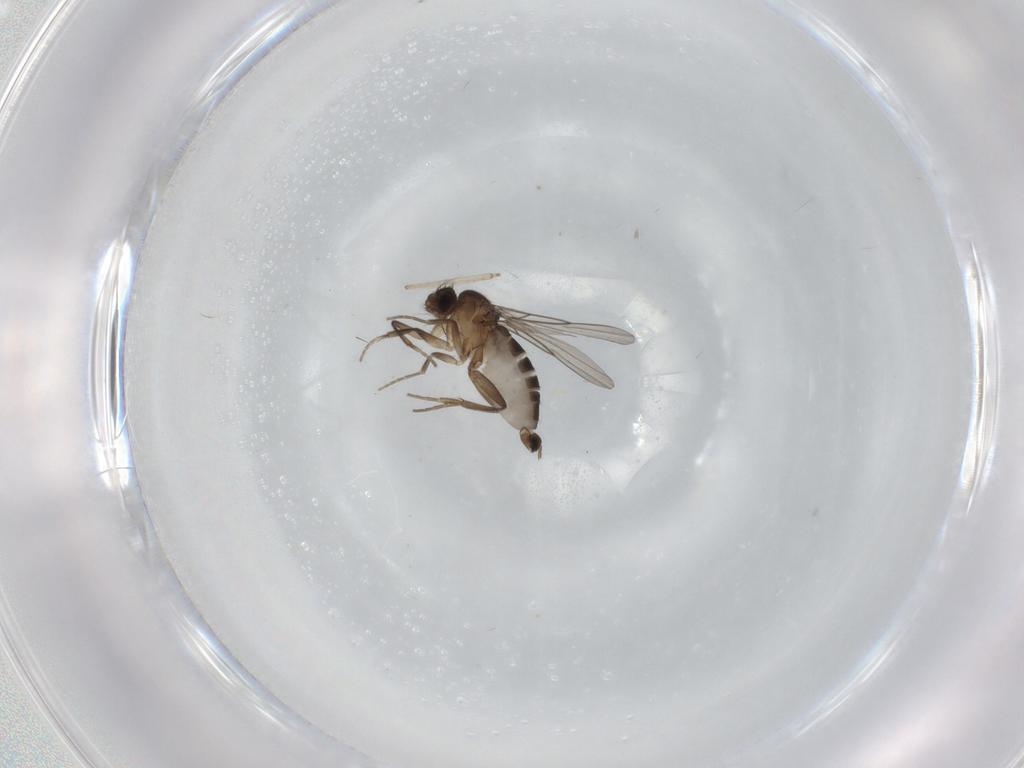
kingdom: Animalia
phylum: Arthropoda
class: Insecta
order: Diptera
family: Phoridae
